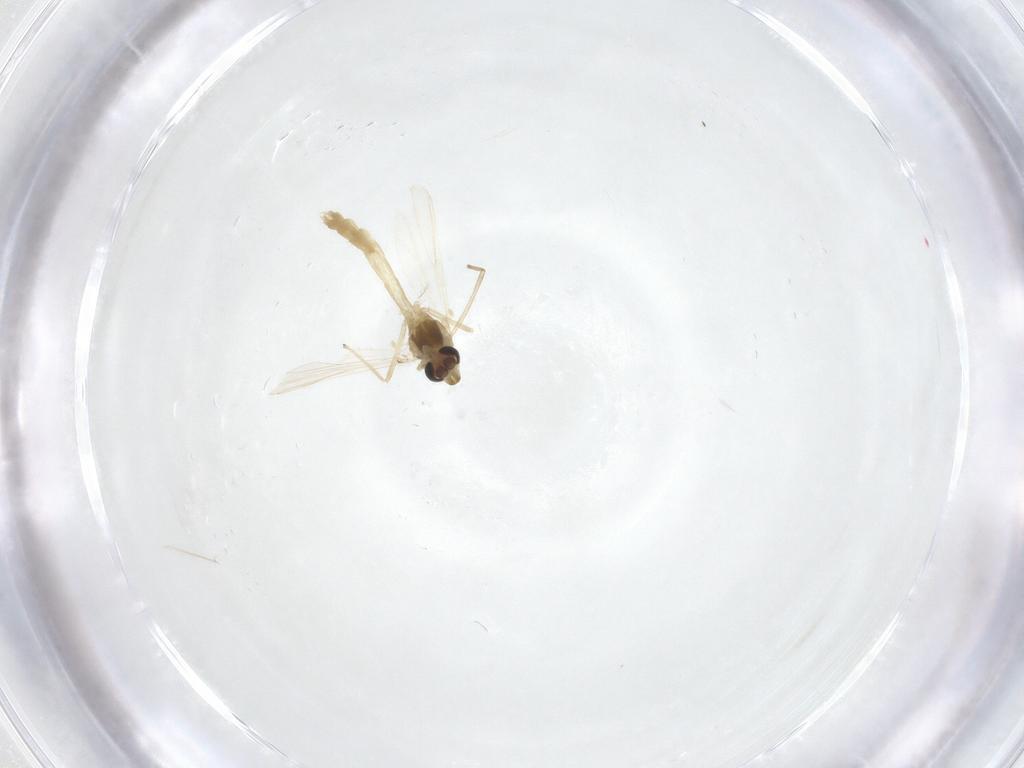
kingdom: Animalia
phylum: Arthropoda
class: Insecta
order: Diptera
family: Chironomidae
